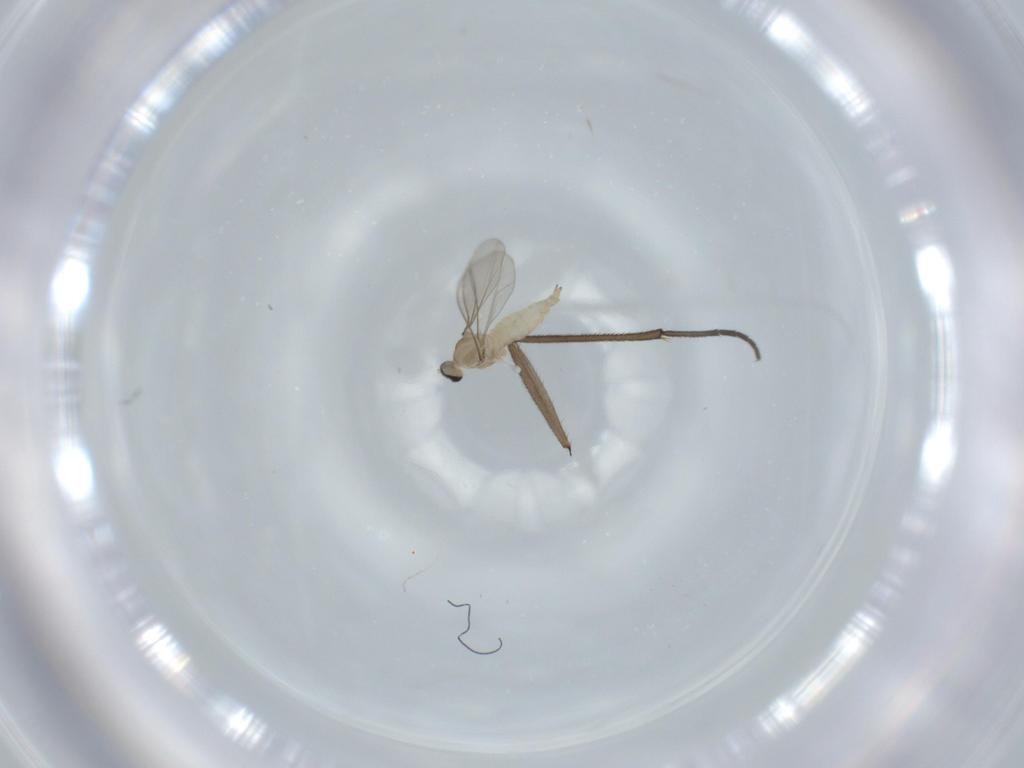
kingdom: Animalia
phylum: Arthropoda
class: Insecta
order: Diptera
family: Cecidomyiidae
